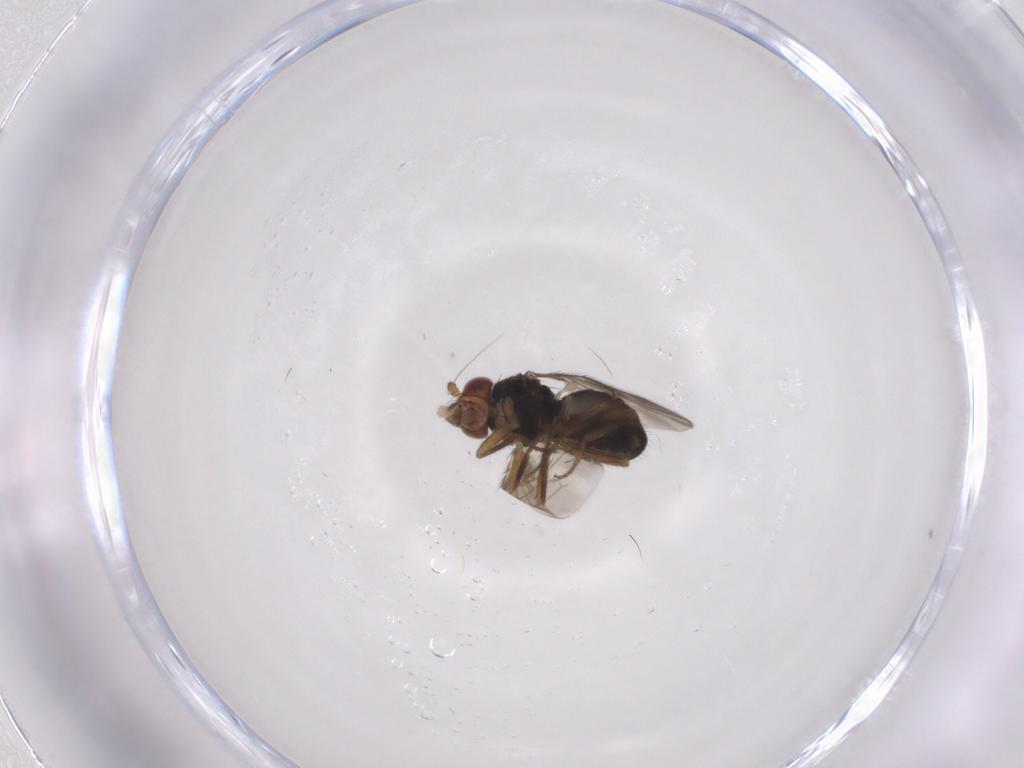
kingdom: Animalia
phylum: Arthropoda
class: Insecta
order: Diptera
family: Sphaeroceridae
